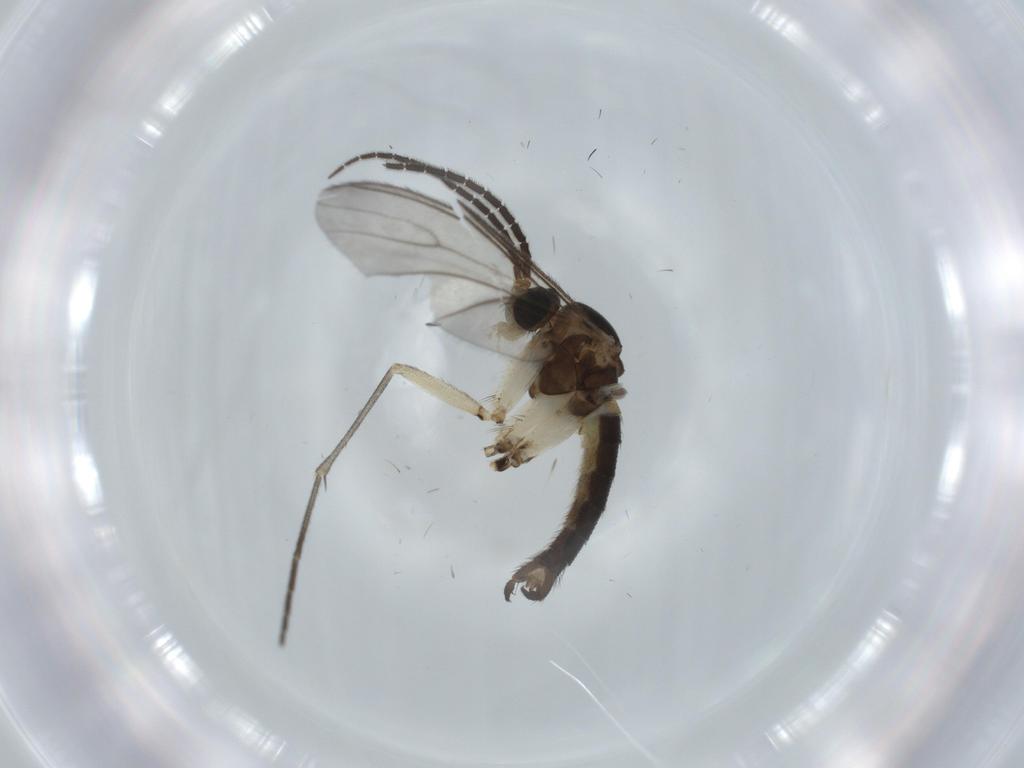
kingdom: Animalia
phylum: Arthropoda
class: Insecta
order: Diptera
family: Sciaridae
